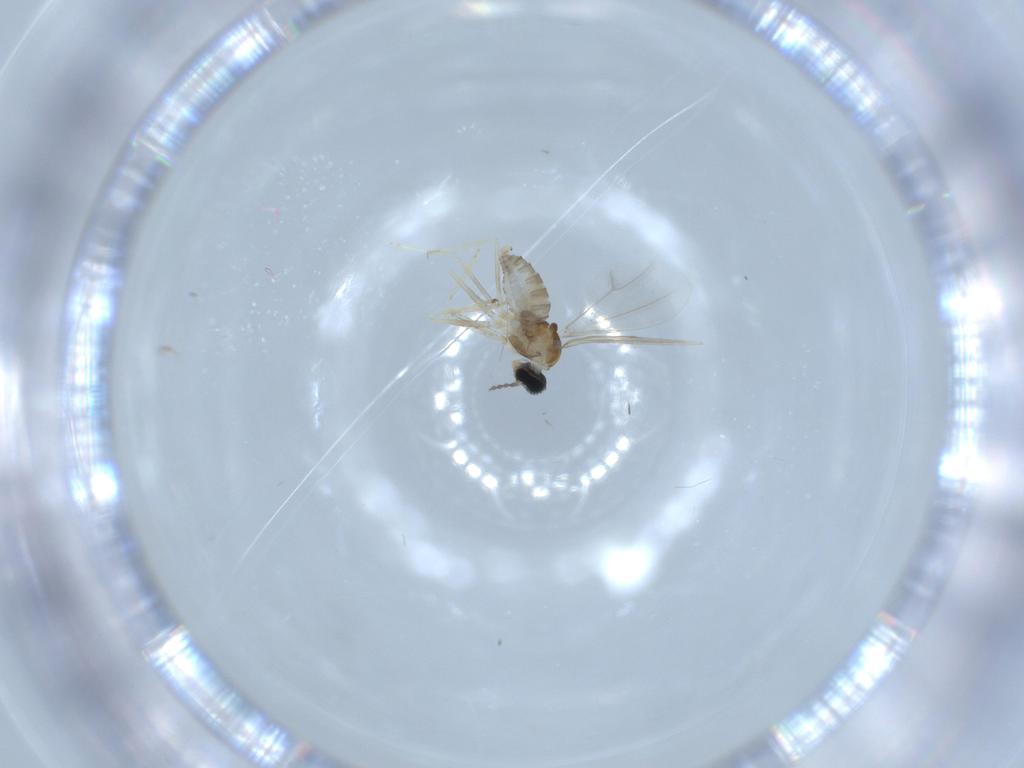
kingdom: Animalia
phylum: Arthropoda
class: Insecta
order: Diptera
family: Cecidomyiidae
